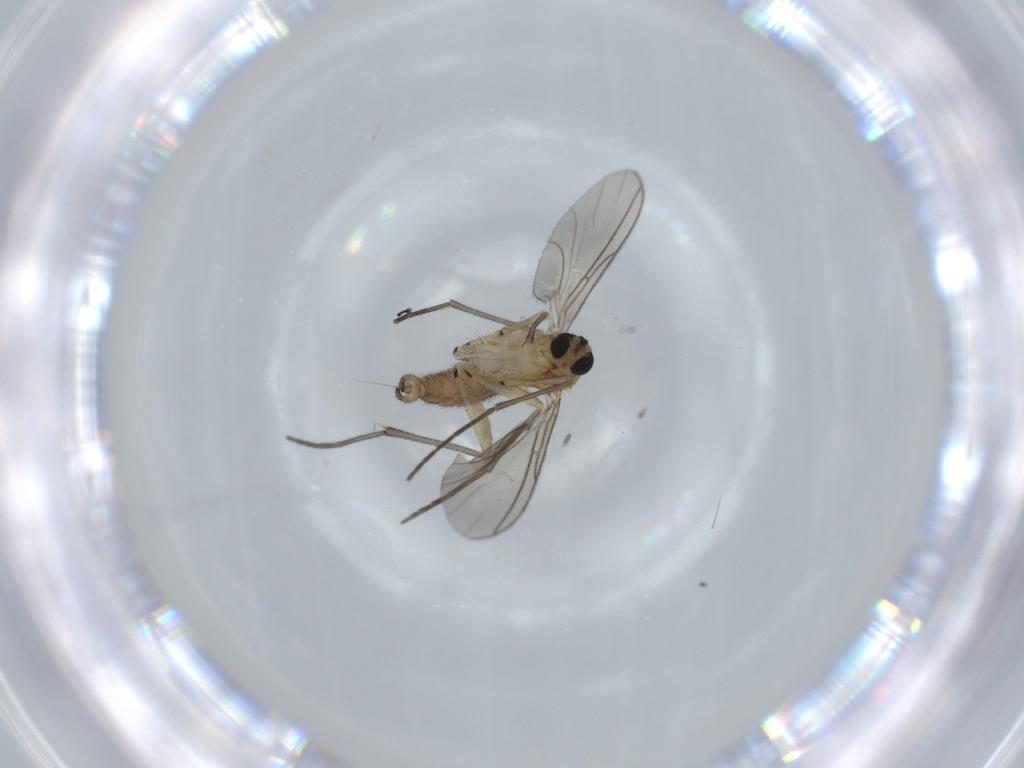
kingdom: Animalia
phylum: Arthropoda
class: Insecta
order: Diptera
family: Sciaridae
